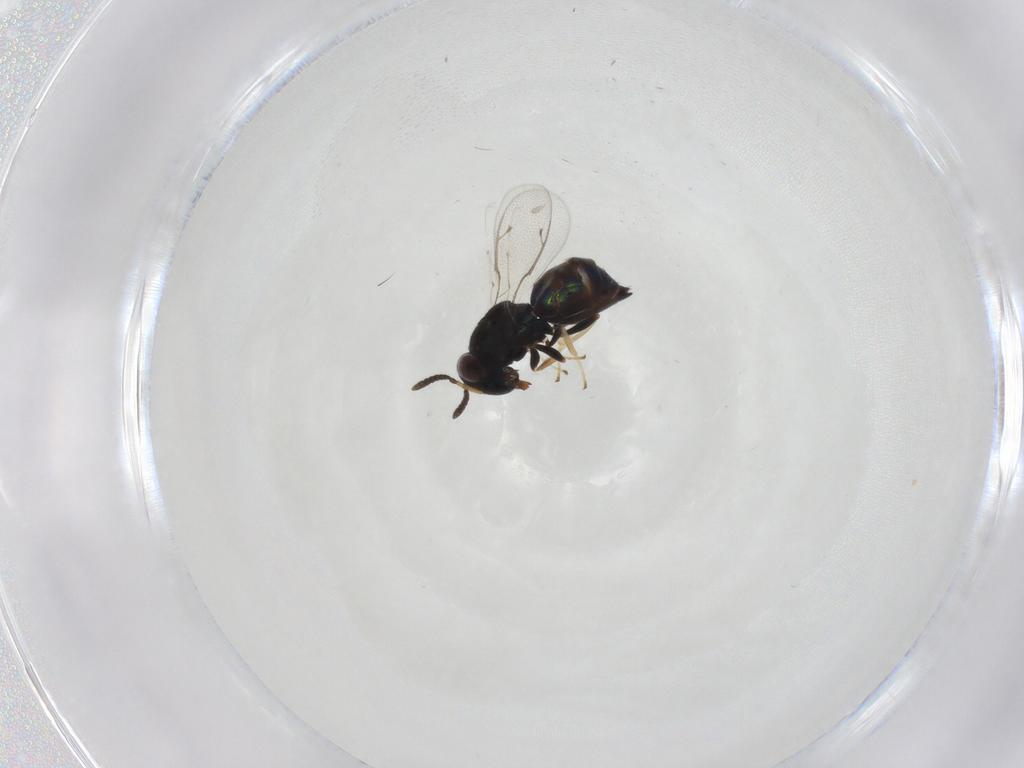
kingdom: Animalia
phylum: Arthropoda
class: Insecta
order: Hymenoptera
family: Pteromalidae
